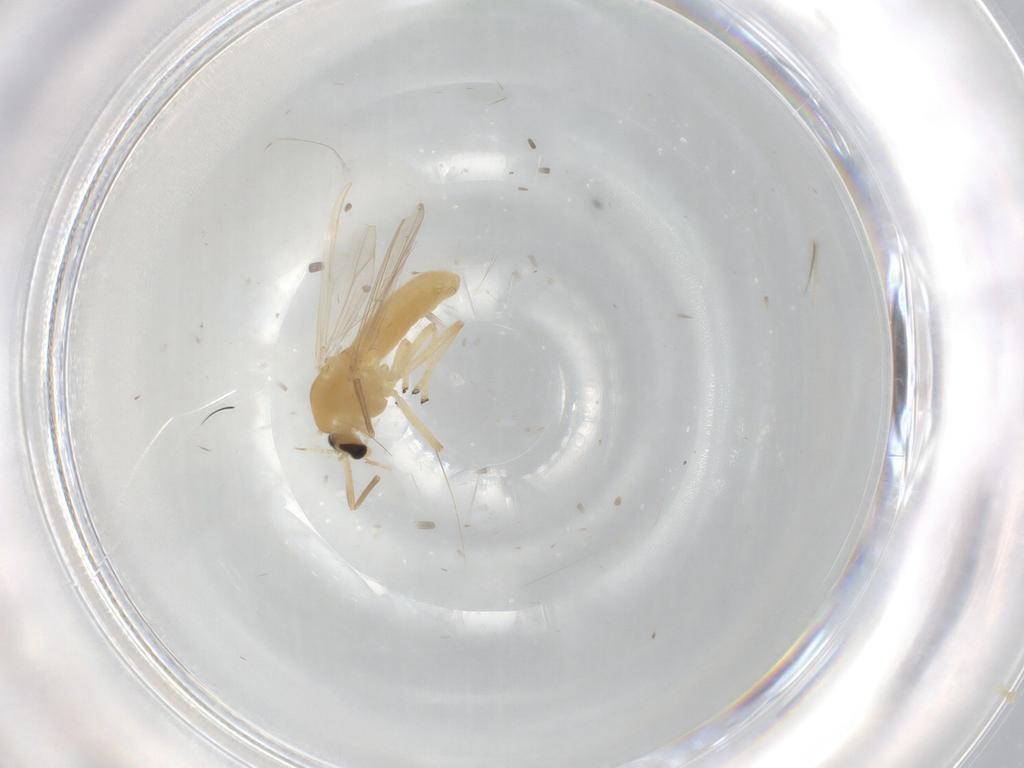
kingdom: Animalia
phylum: Arthropoda
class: Insecta
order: Diptera
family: Chironomidae
